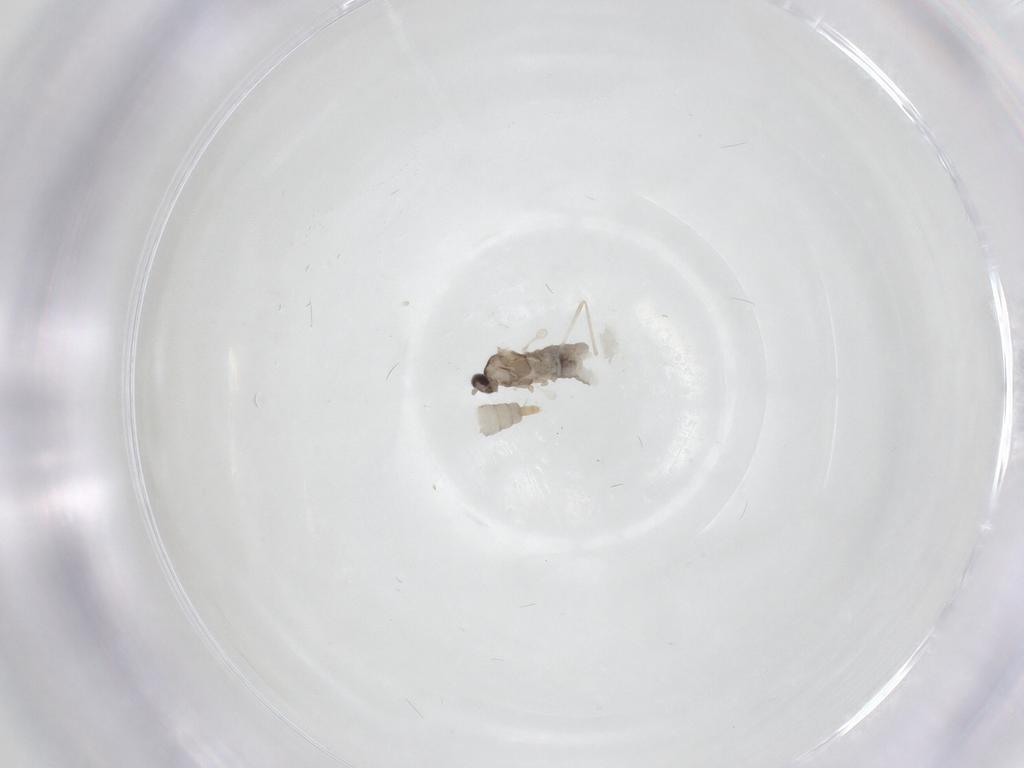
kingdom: Animalia
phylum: Arthropoda
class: Insecta
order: Diptera
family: Cecidomyiidae
